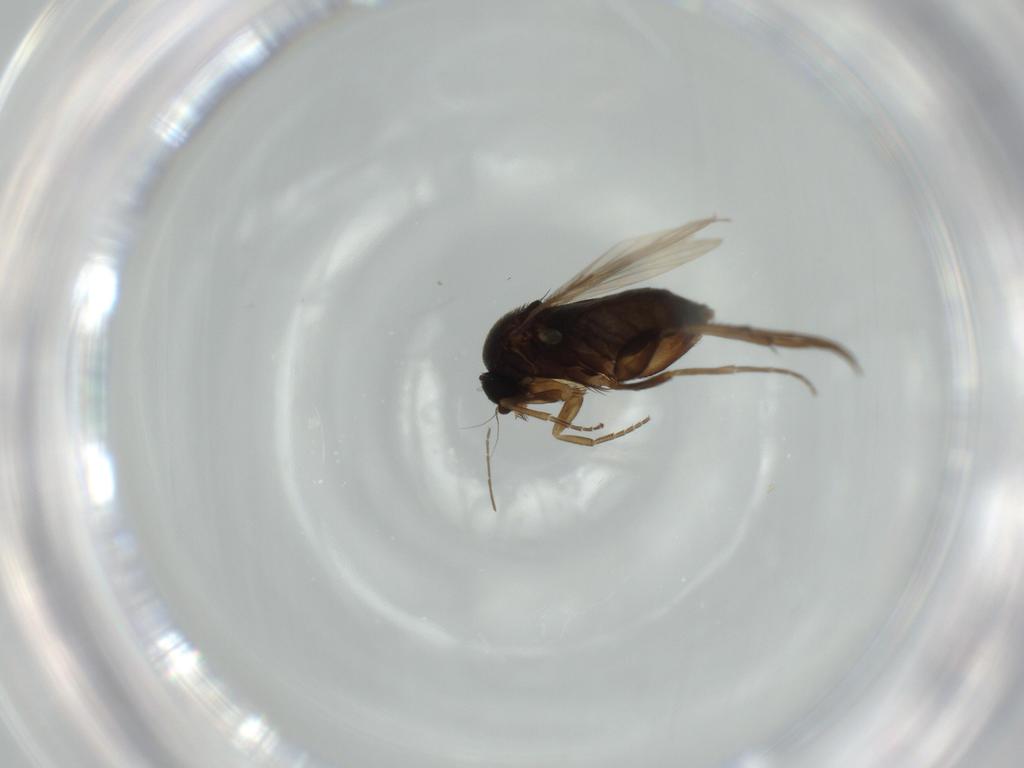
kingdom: Animalia
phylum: Arthropoda
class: Insecta
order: Diptera
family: Phoridae
